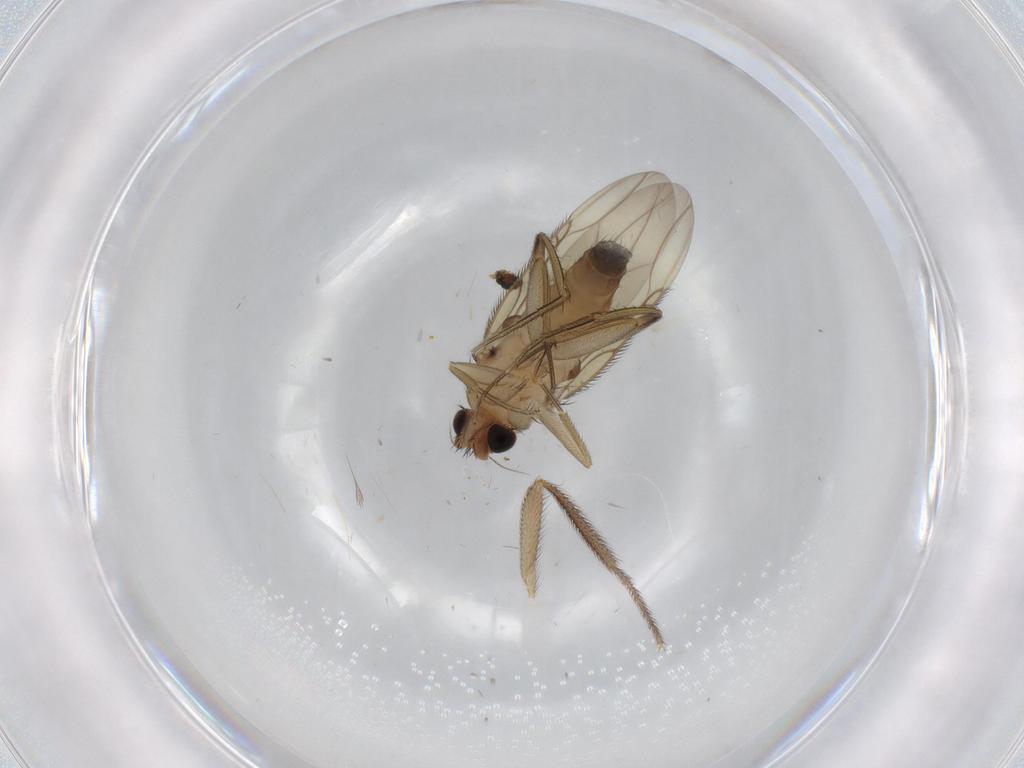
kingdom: Animalia
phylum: Arthropoda
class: Insecta
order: Diptera
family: Phoridae
